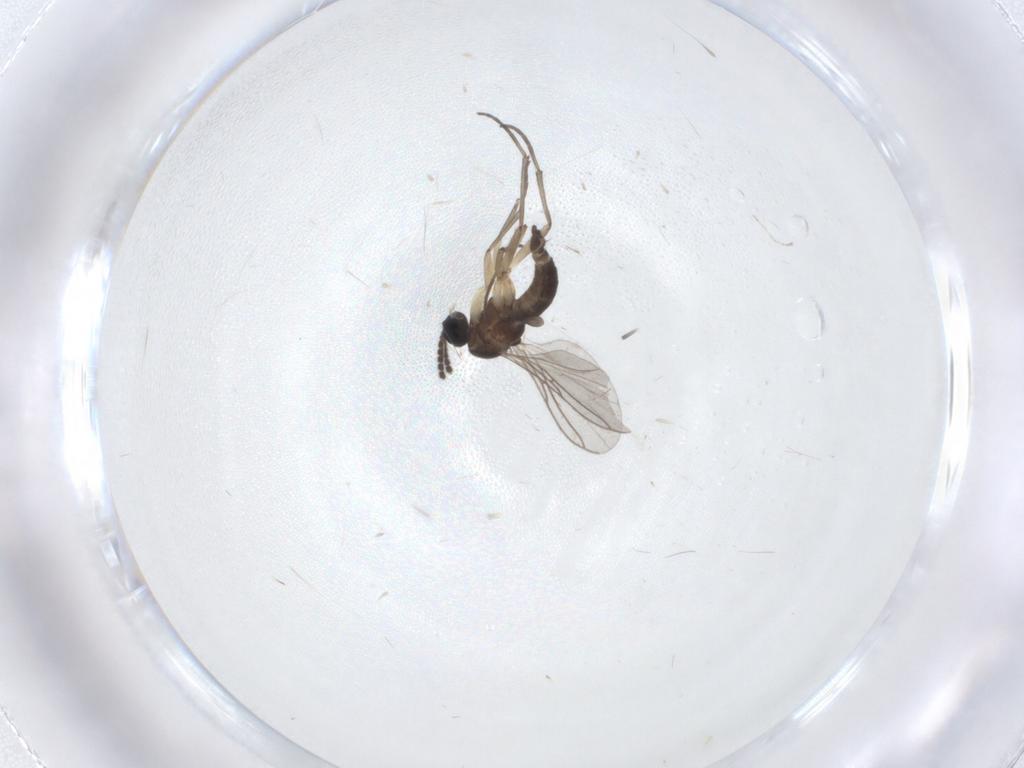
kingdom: Animalia
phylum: Arthropoda
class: Insecta
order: Diptera
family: Sciaridae
